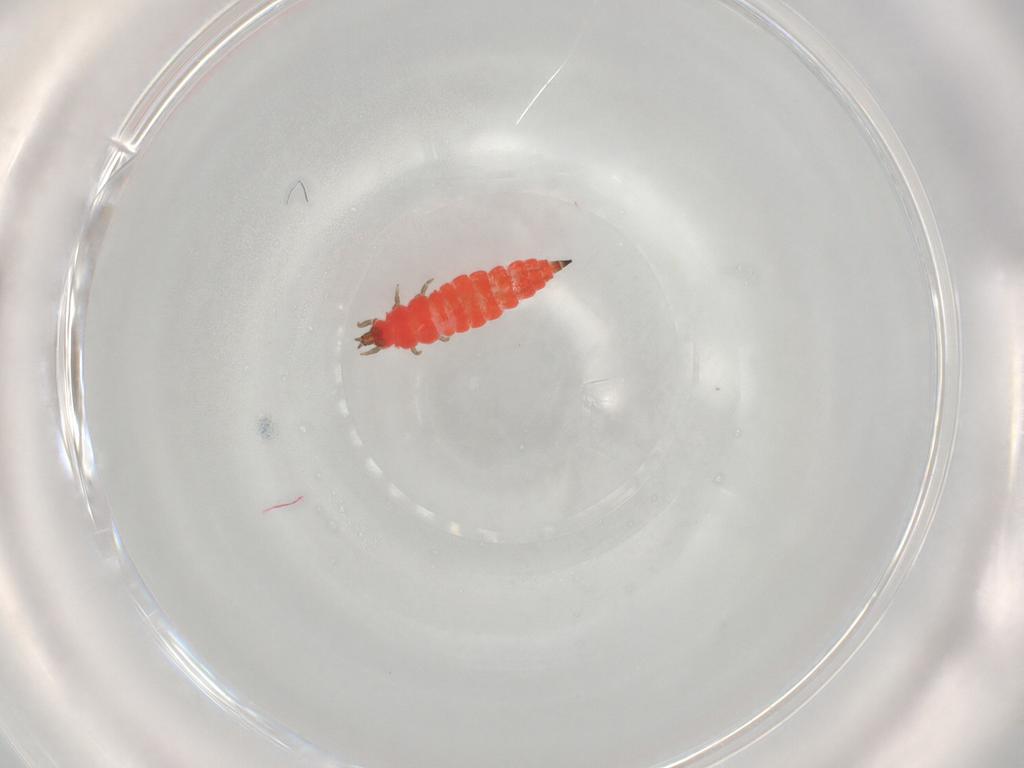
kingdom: Animalia
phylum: Arthropoda
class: Insecta
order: Thysanoptera
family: Phlaeothripidae
